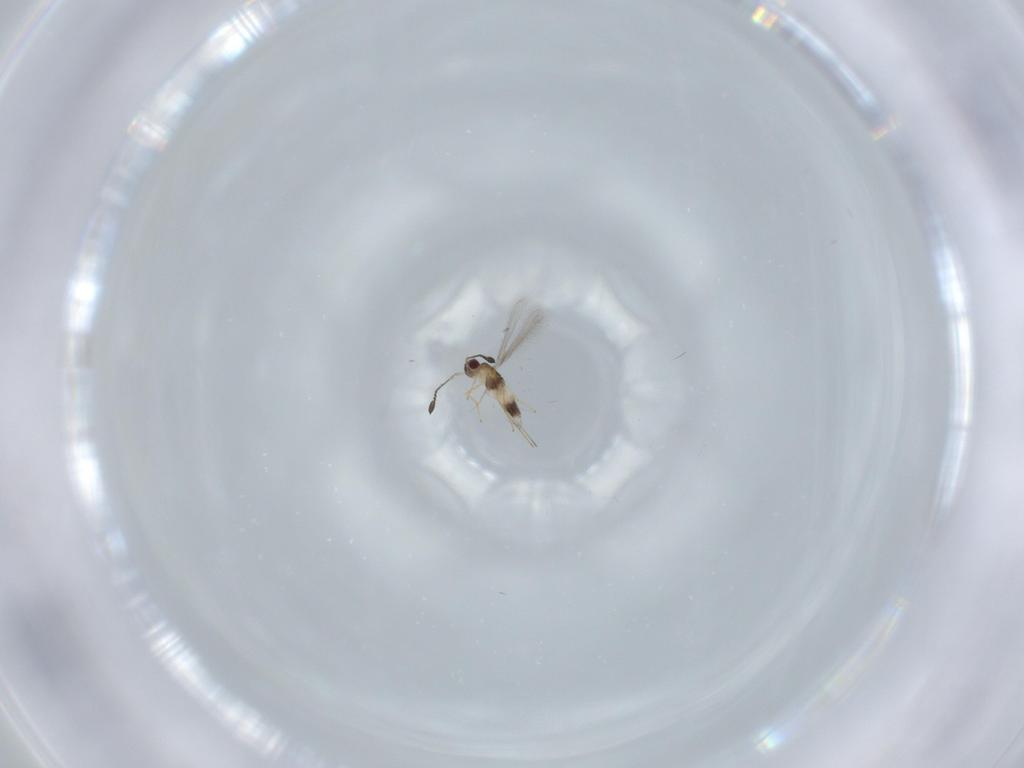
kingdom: Animalia
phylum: Arthropoda
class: Insecta
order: Hymenoptera
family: Mymaridae
